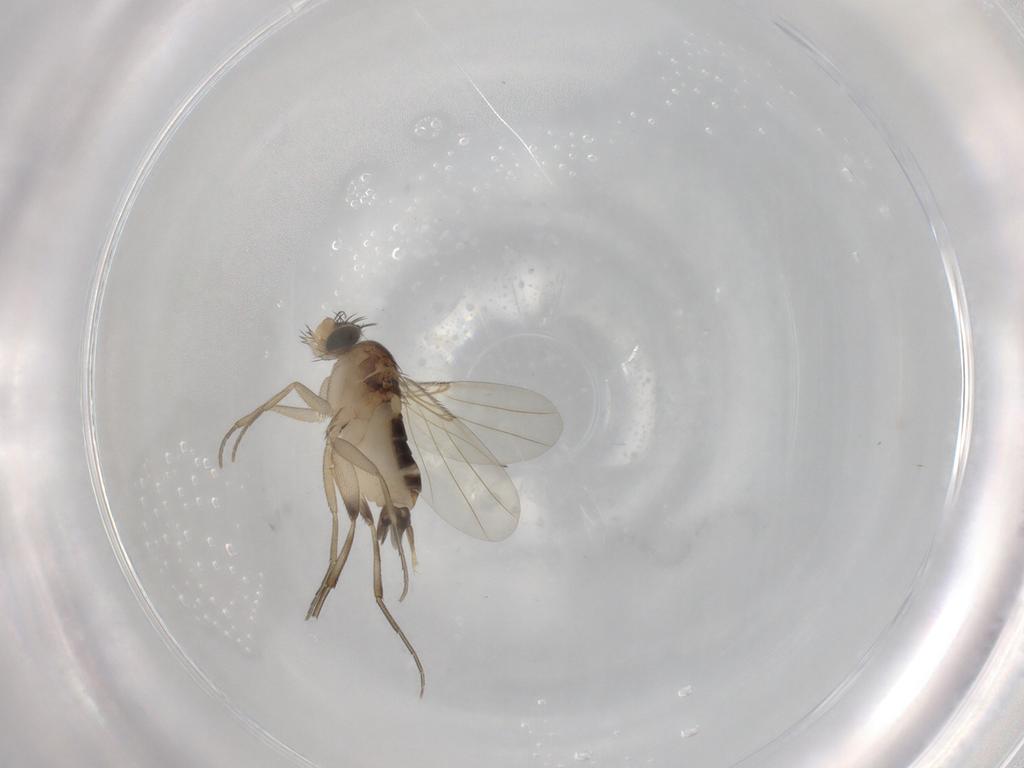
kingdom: Animalia
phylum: Arthropoda
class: Insecta
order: Diptera
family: Phoridae
